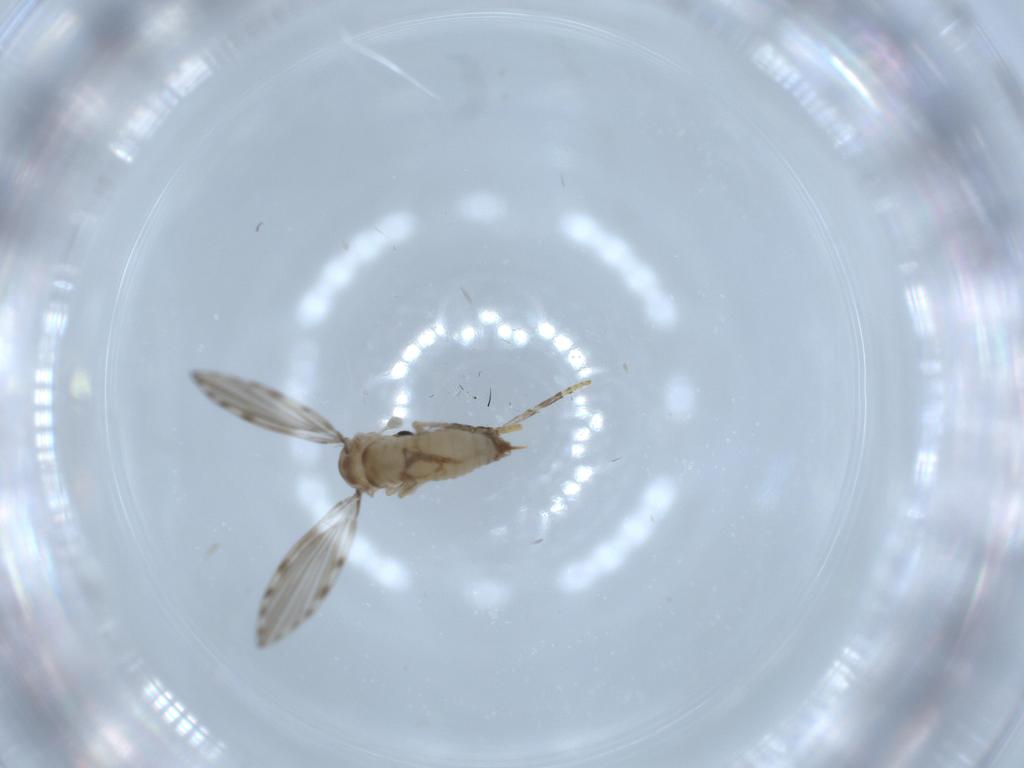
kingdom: Animalia
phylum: Arthropoda
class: Insecta
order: Diptera
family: Psychodidae
